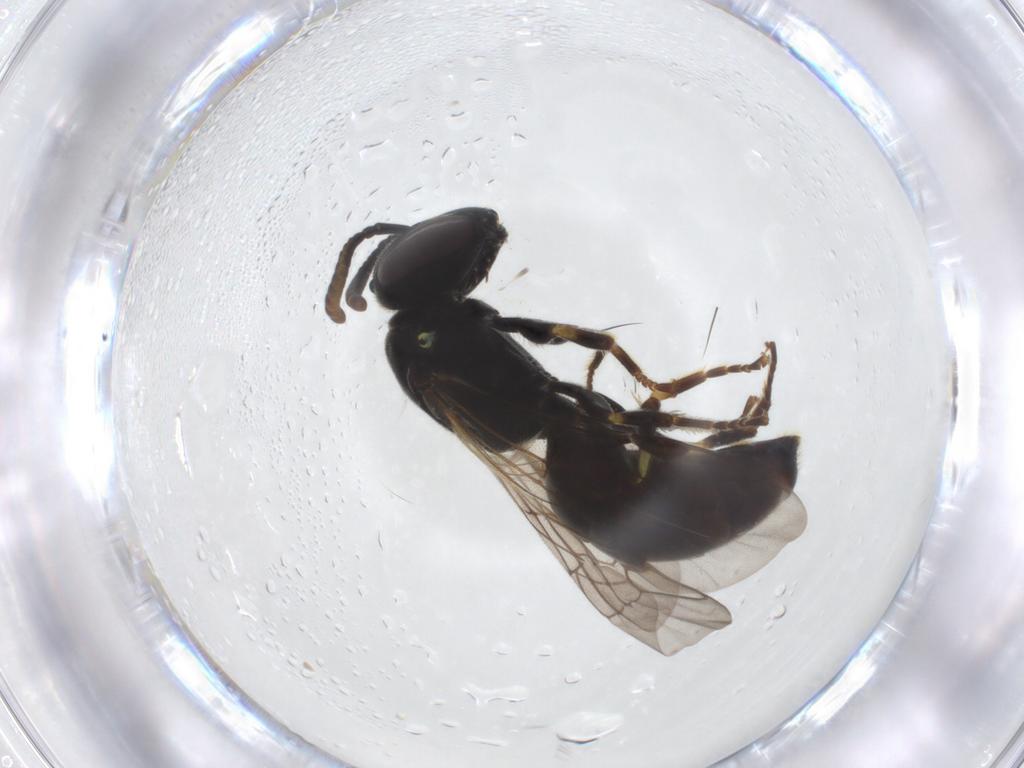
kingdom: Animalia
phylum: Arthropoda
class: Insecta
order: Hymenoptera
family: Colletidae
